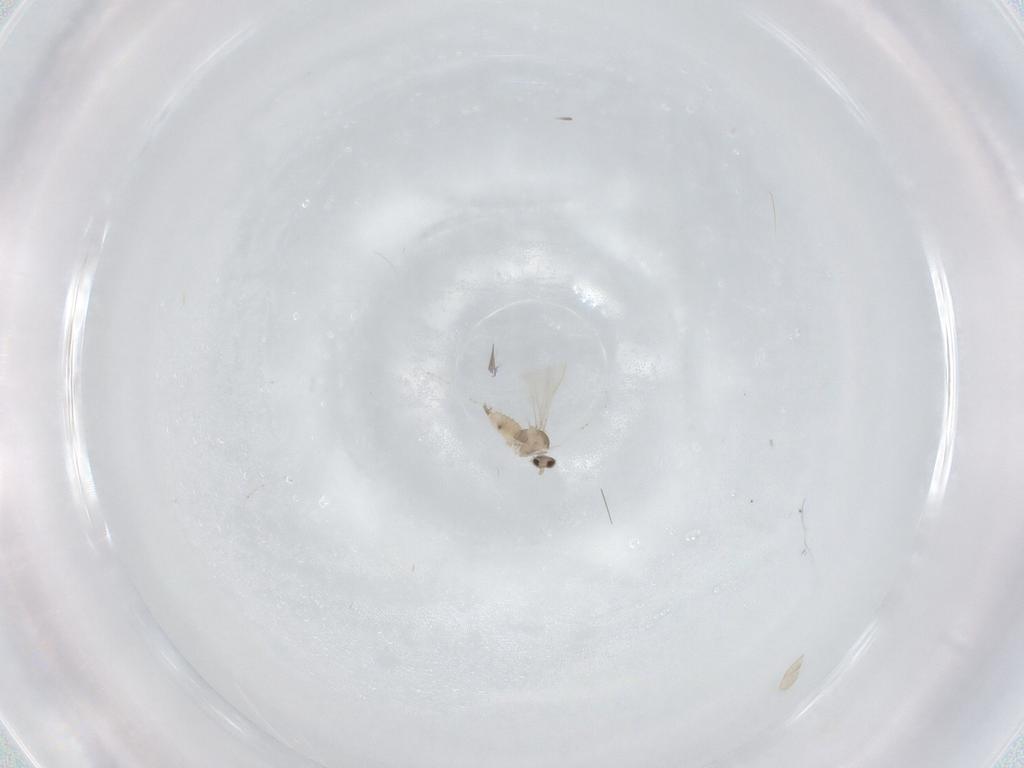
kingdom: Animalia
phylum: Arthropoda
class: Insecta
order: Diptera
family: Cecidomyiidae
